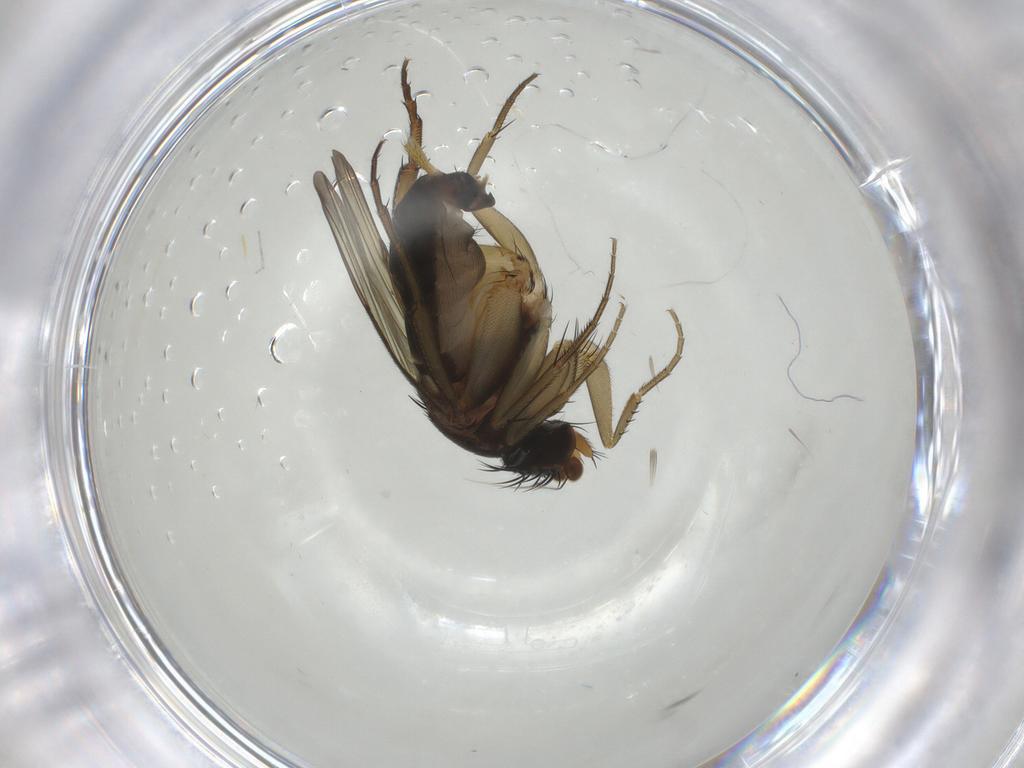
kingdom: Animalia
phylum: Arthropoda
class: Insecta
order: Diptera
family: Phoridae
